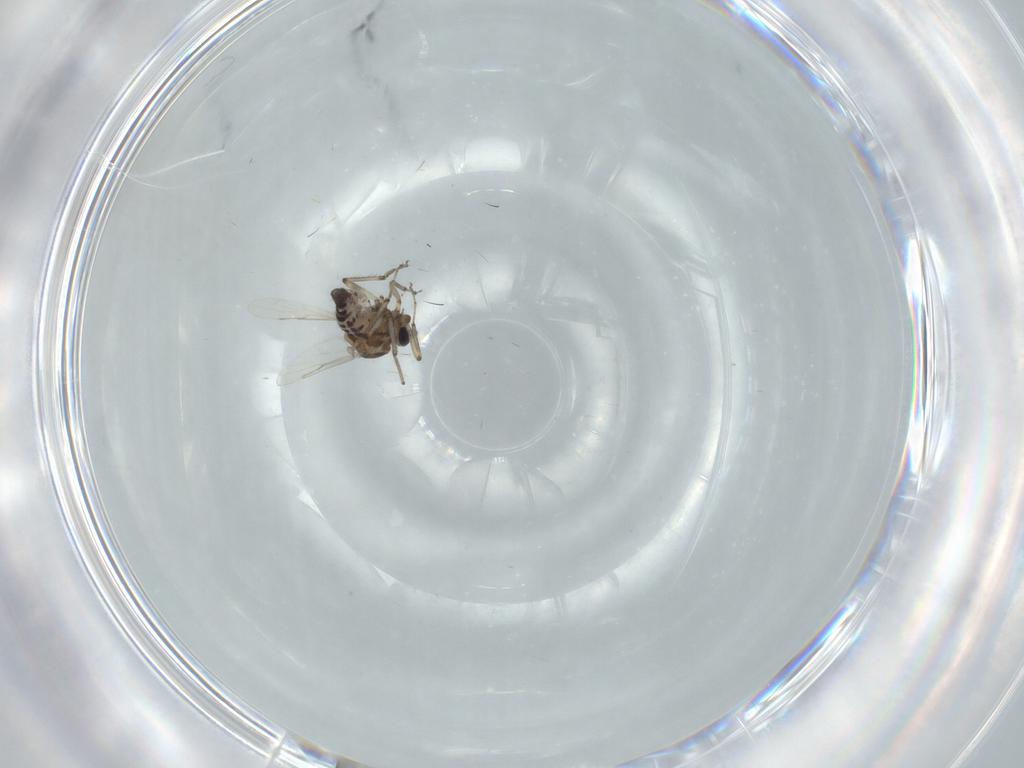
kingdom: Animalia
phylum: Arthropoda
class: Insecta
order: Diptera
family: Ceratopogonidae
